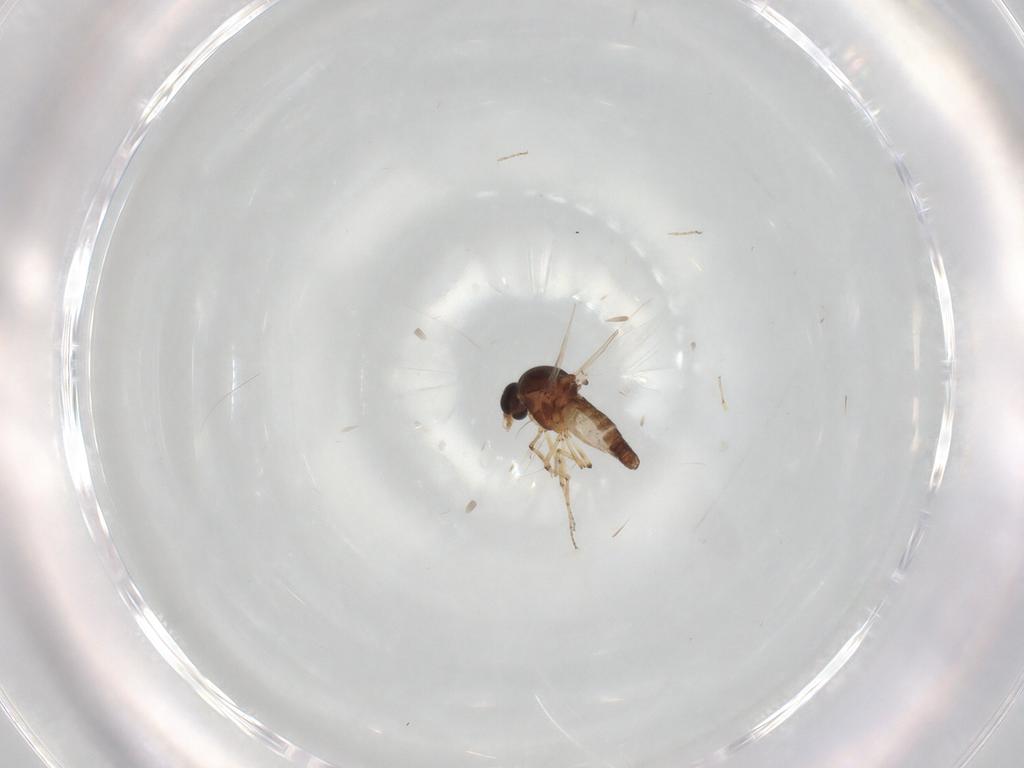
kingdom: Animalia
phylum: Arthropoda
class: Insecta
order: Diptera
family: Ceratopogonidae
